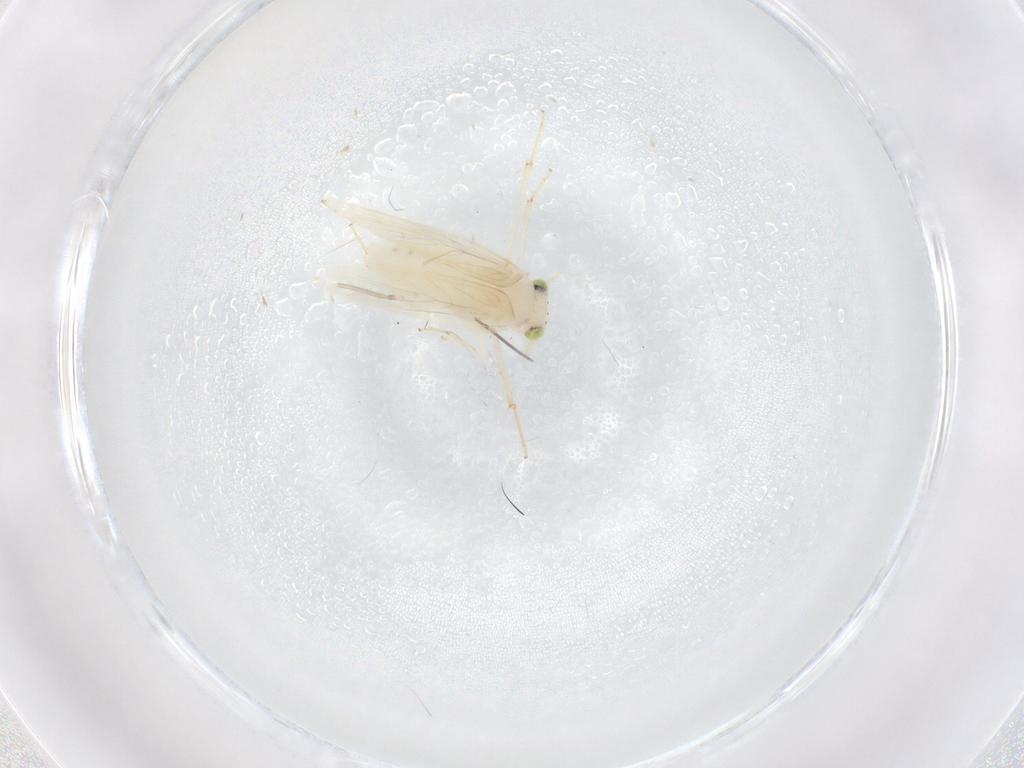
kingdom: Animalia
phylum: Arthropoda
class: Insecta
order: Psocodea
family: Lepidopsocidae
